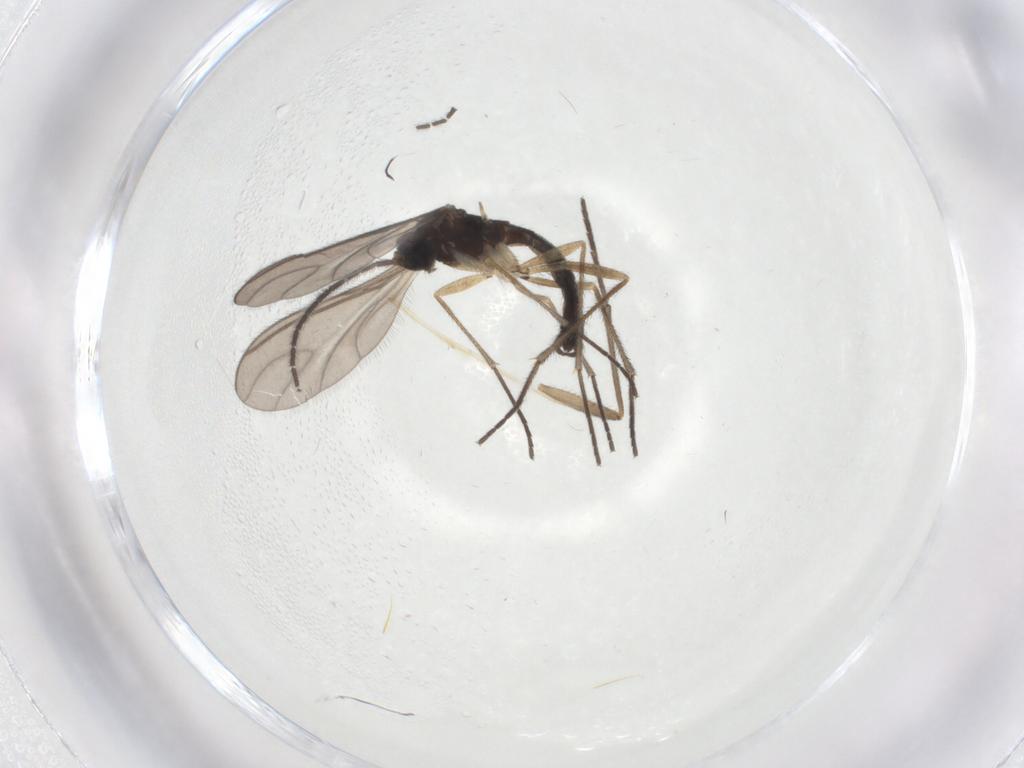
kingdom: Animalia
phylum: Arthropoda
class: Insecta
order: Diptera
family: Sciaridae
